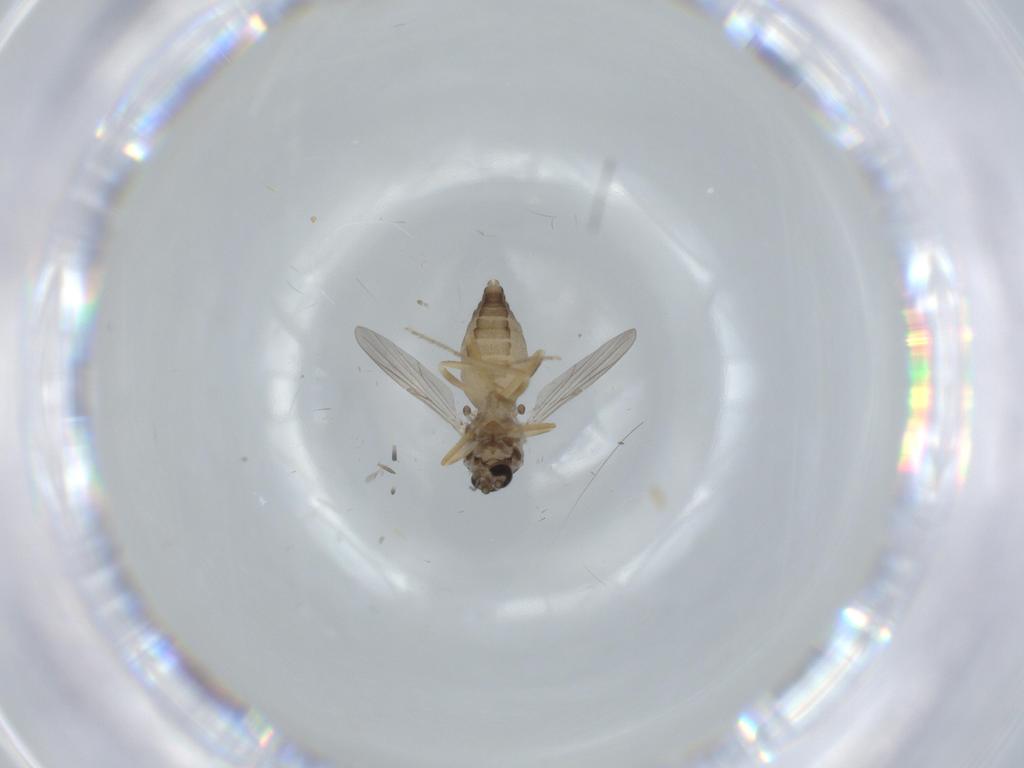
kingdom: Animalia
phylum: Arthropoda
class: Insecta
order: Diptera
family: Ceratopogonidae
